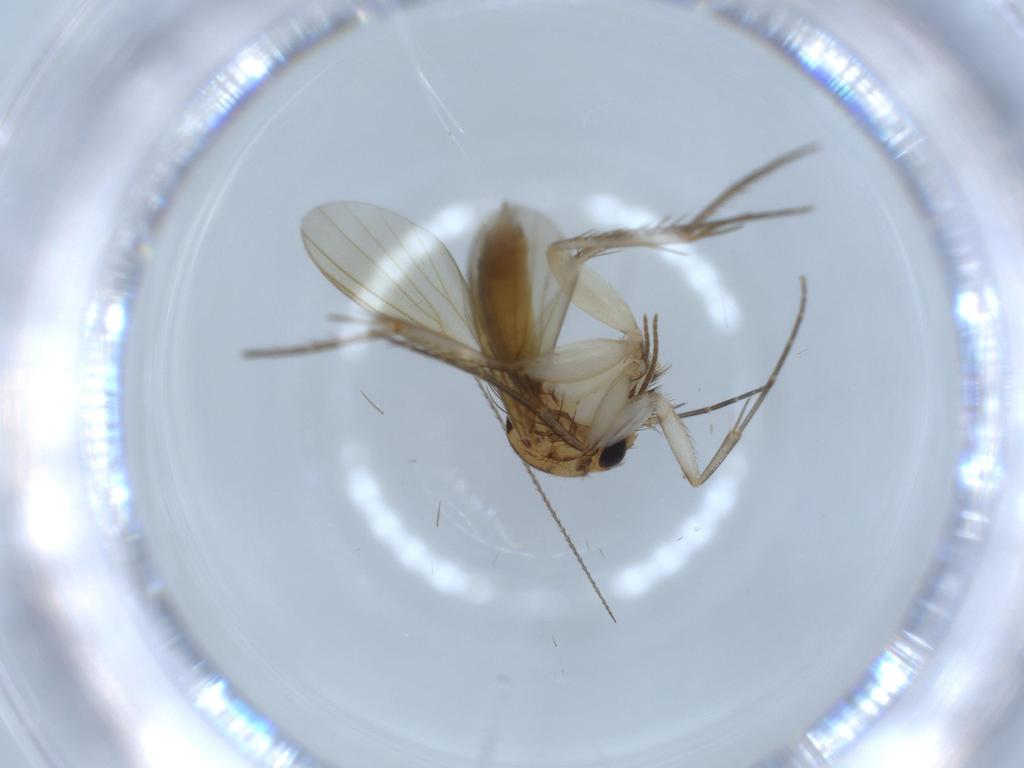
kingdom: Animalia
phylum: Arthropoda
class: Insecta
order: Diptera
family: Mycetophilidae
